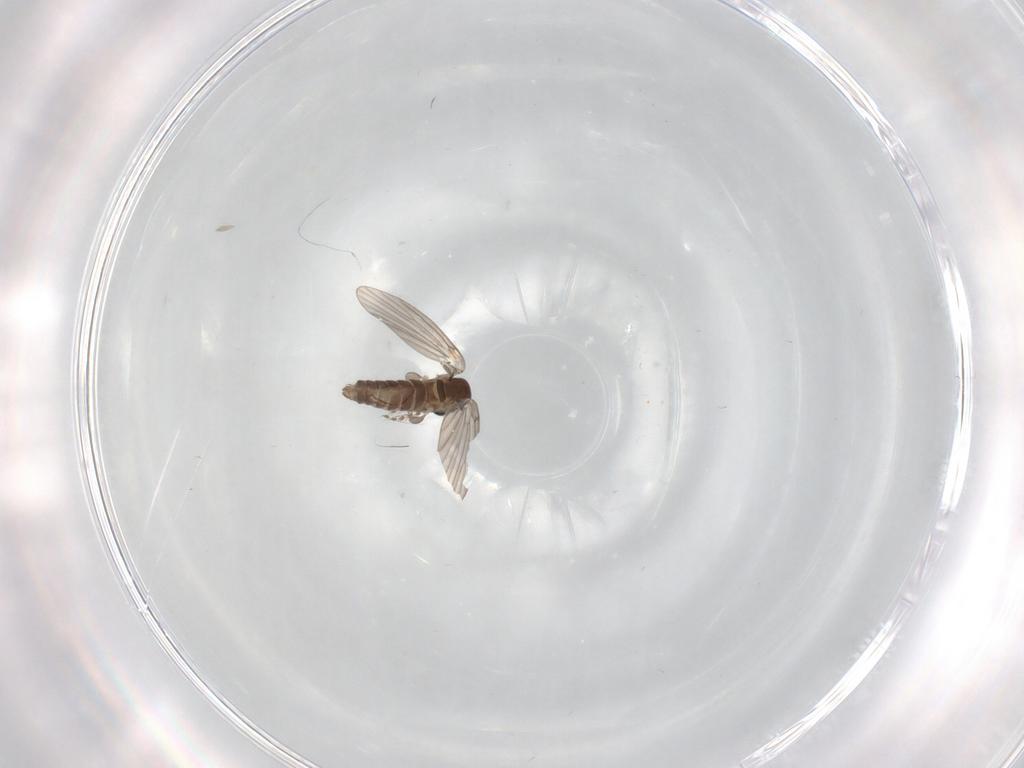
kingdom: Animalia
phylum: Arthropoda
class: Insecta
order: Diptera
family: Cecidomyiidae
